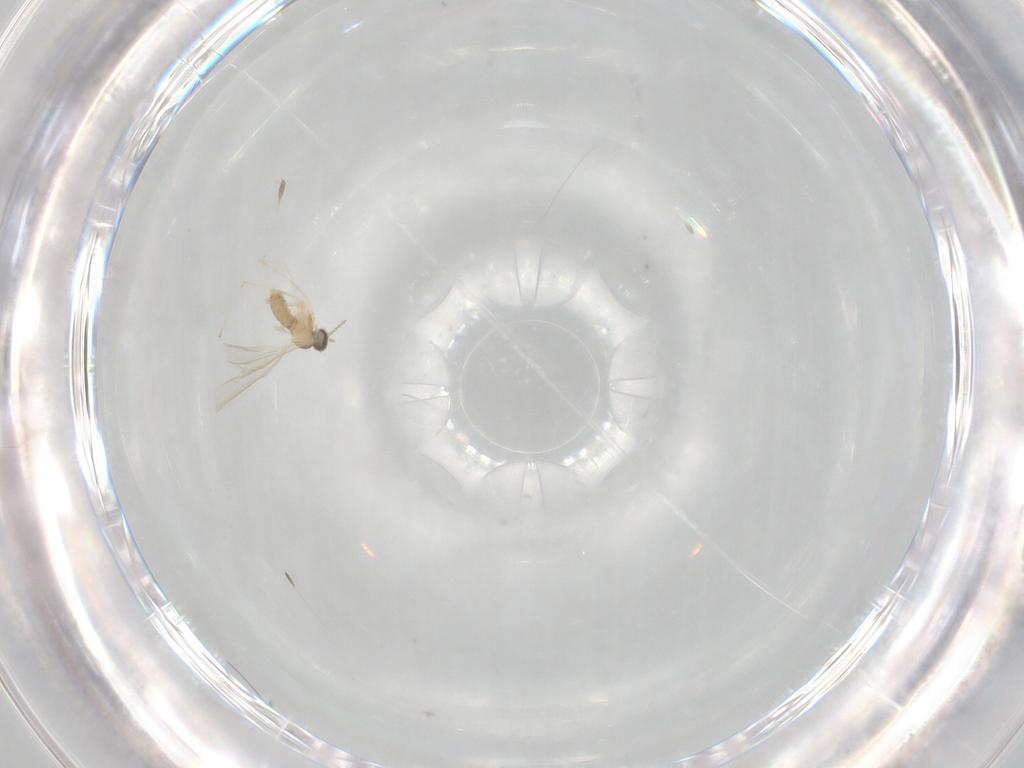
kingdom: Animalia
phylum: Arthropoda
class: Insecta
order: Diptera
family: Cecidomyiidae
